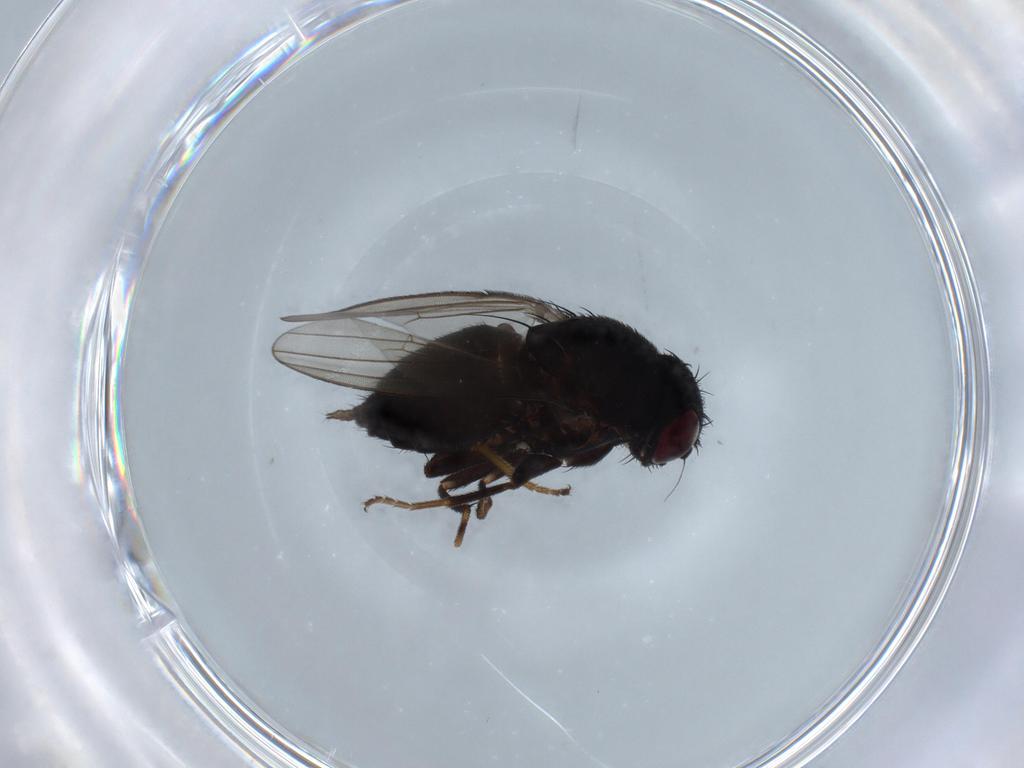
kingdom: Animalia
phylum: Arthropoda
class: Insecta
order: Diptera
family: Milichiidae
